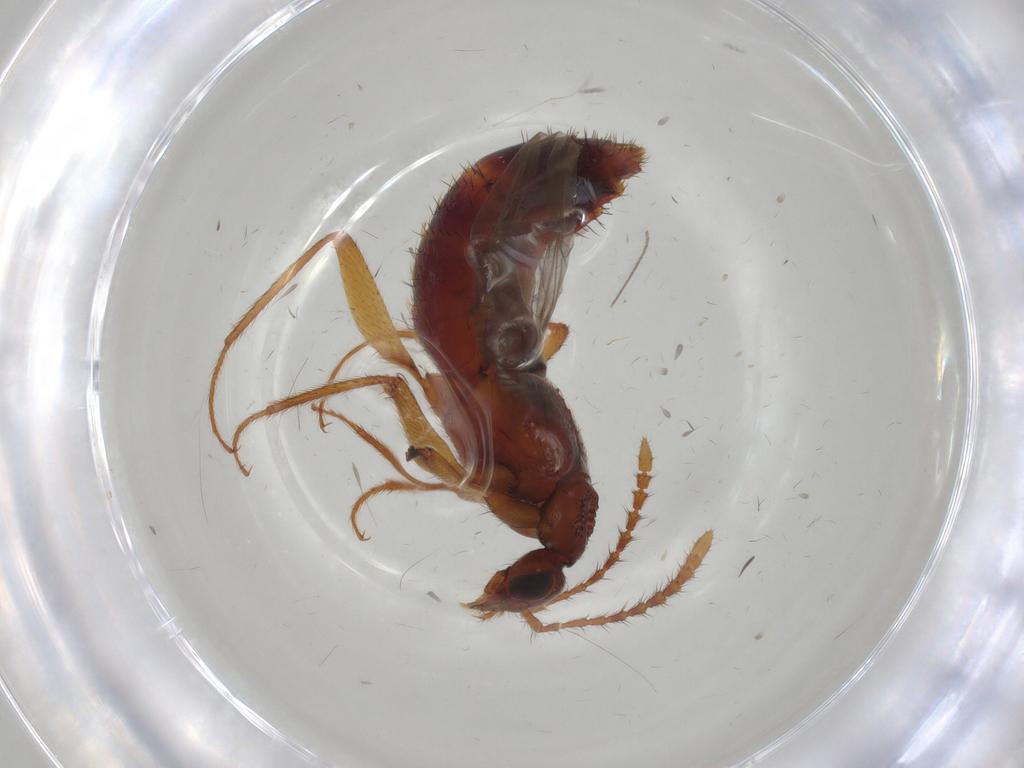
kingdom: Animalia
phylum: Arthropoda
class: Insecta
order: Coleoptera
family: Staphylinidae
